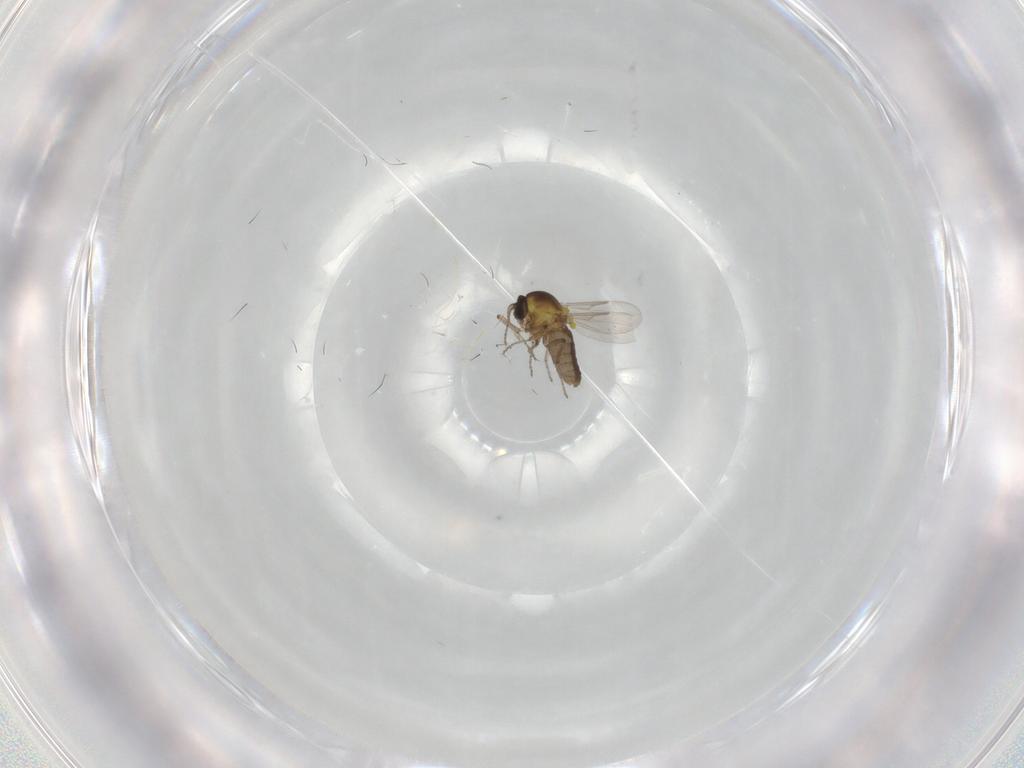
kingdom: Animalia
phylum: Arthropoda
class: Insecta
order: Diptera
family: Ceratopogonidae
